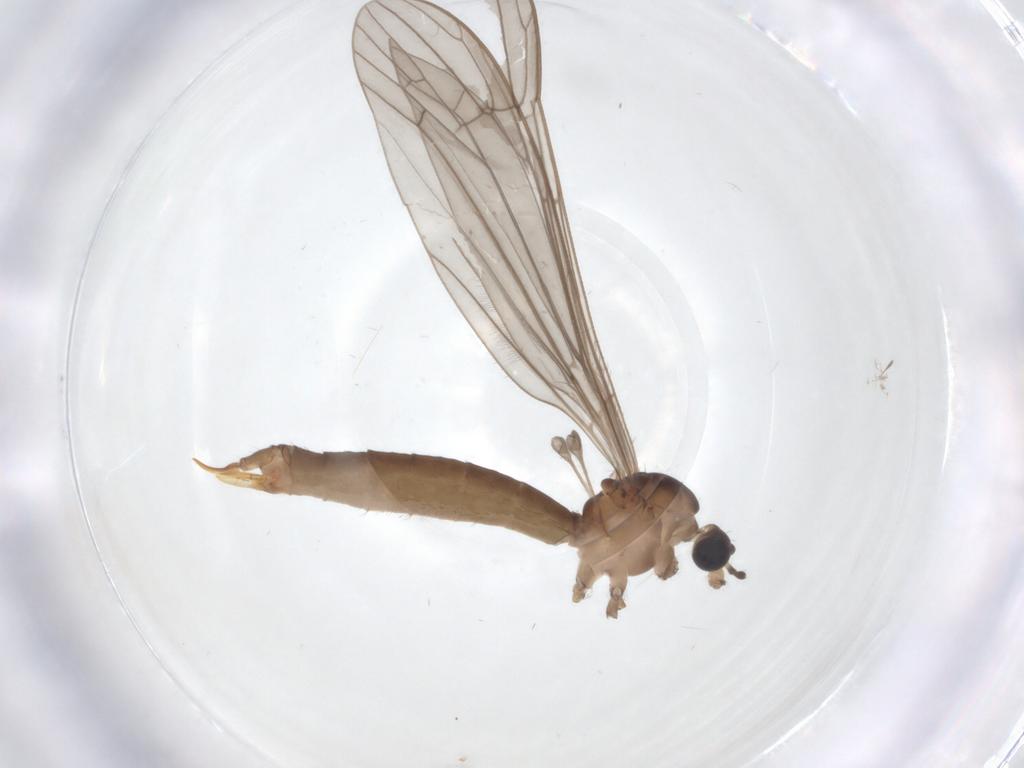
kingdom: Animalia
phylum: Arthropoda
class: Insecta
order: Diptera
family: Limoniidae
